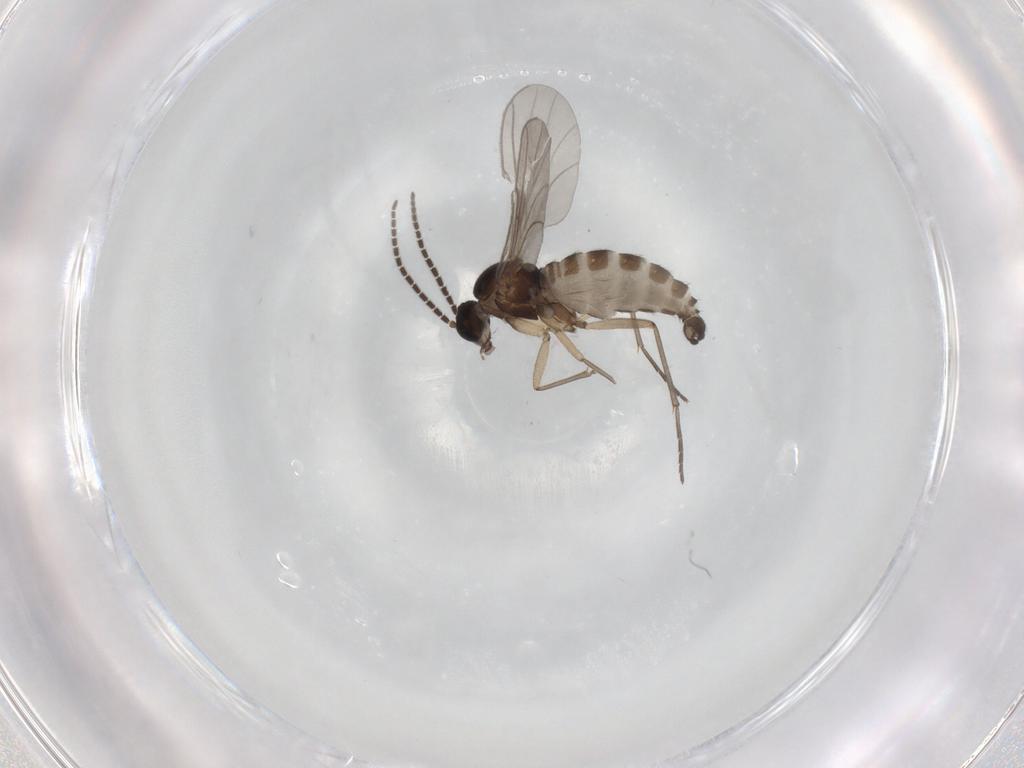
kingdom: Animalia
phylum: Arthropoda
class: Insecta
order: Diptera
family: Sciaridae
